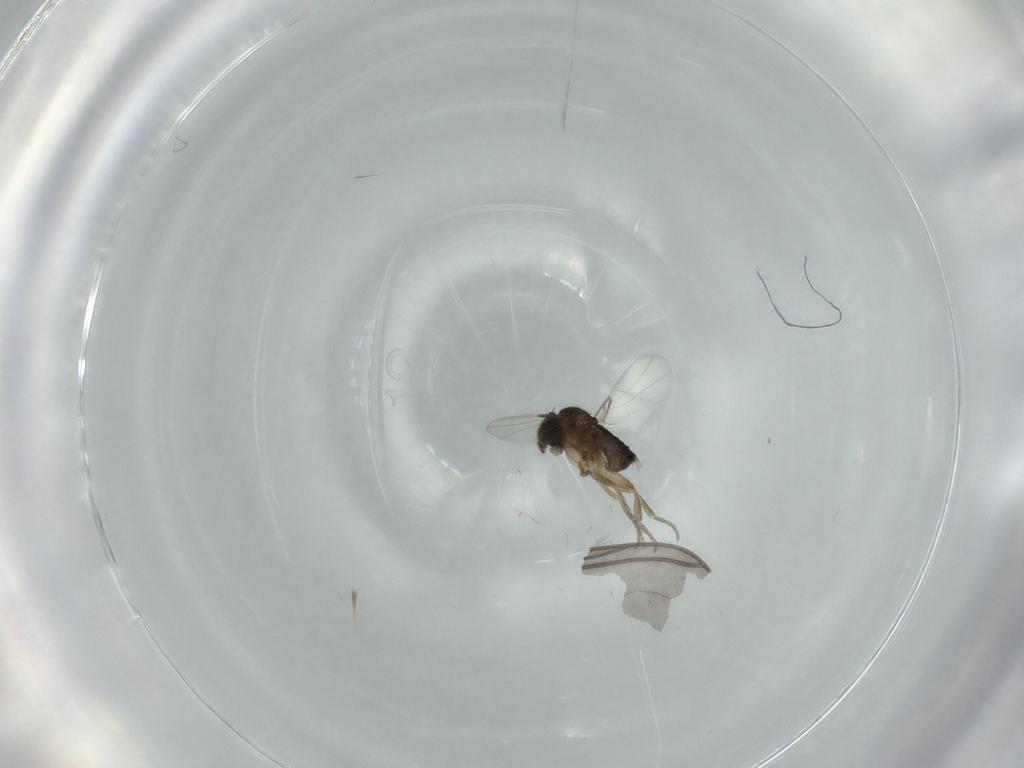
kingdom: Animalia
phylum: Arthropoda
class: Insecta
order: Diptera
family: Phoridae
